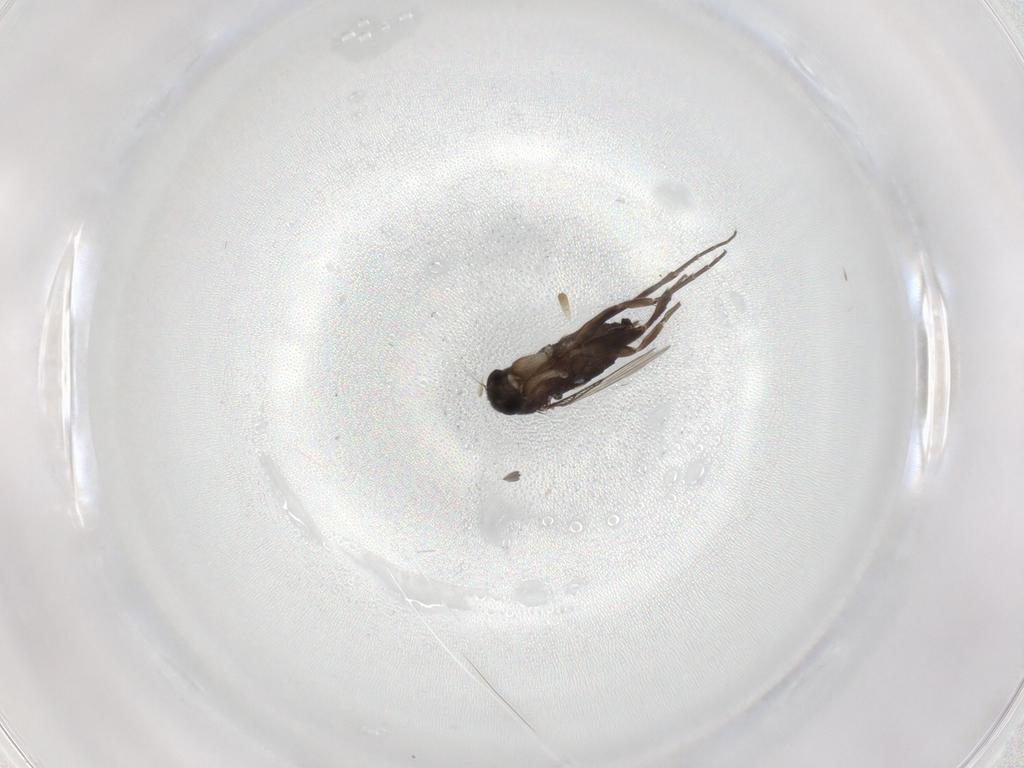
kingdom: Animalia
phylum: Arthropoda
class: Insecta
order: Diptera
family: Phoridae
